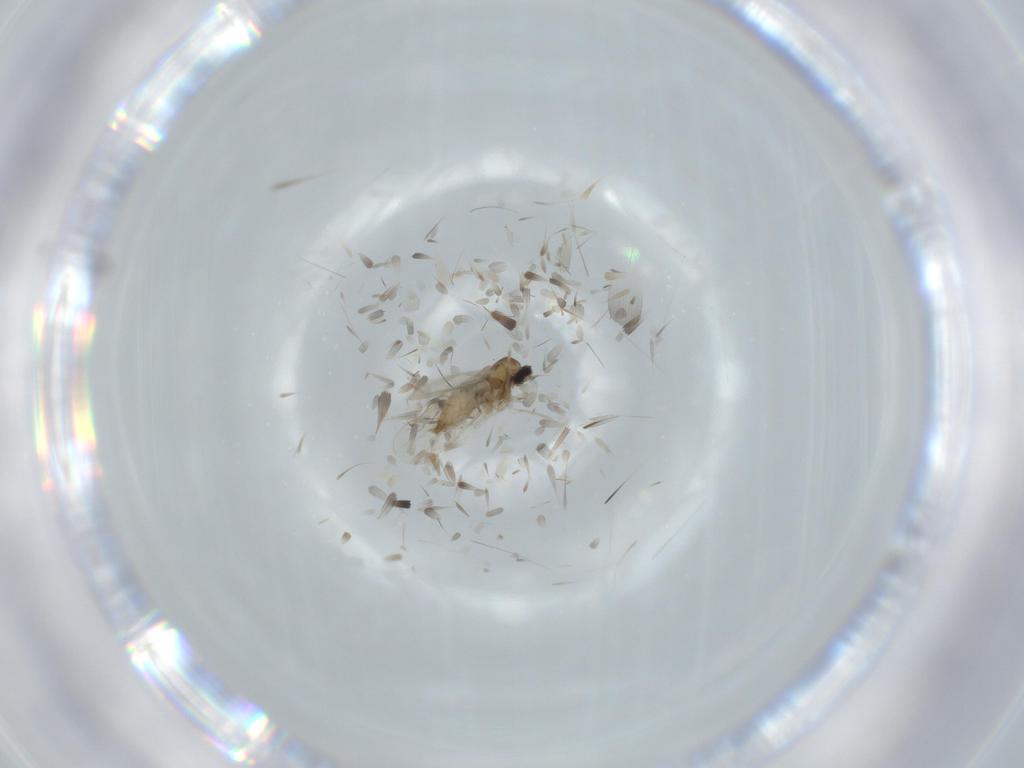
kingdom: Animalia
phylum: Arthropoda
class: Insecta
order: Diptera
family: Cecidomyiidae
